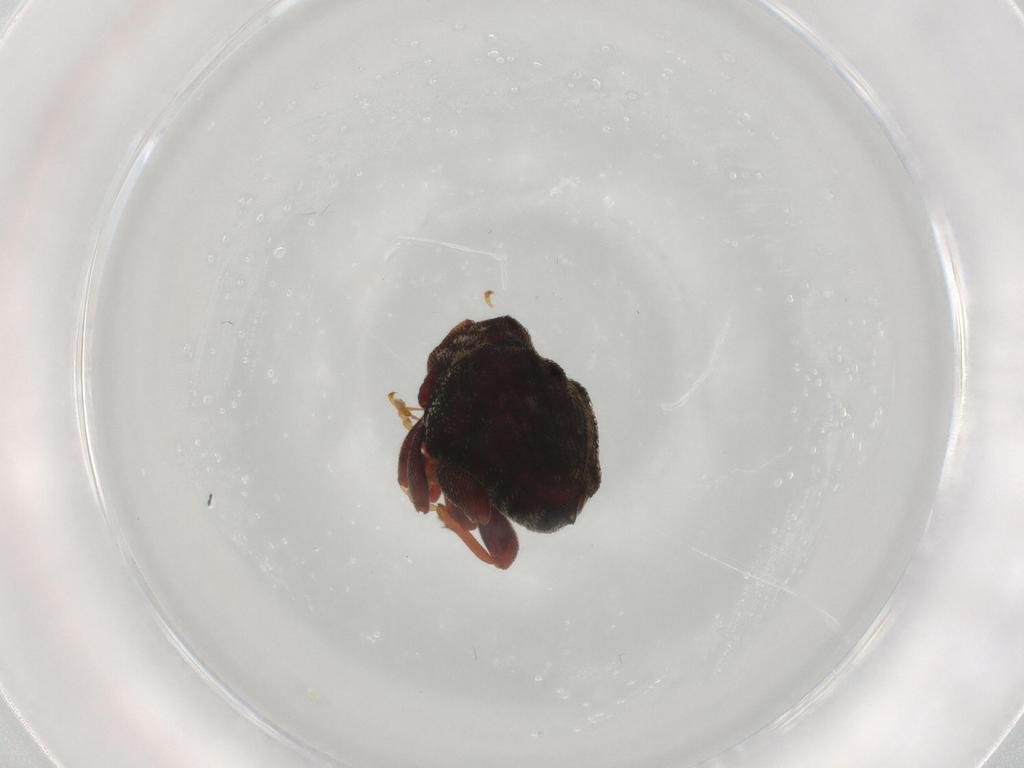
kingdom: Animalia
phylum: Arthropoda
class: Insecta
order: Coleoptera
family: Curculionidae
